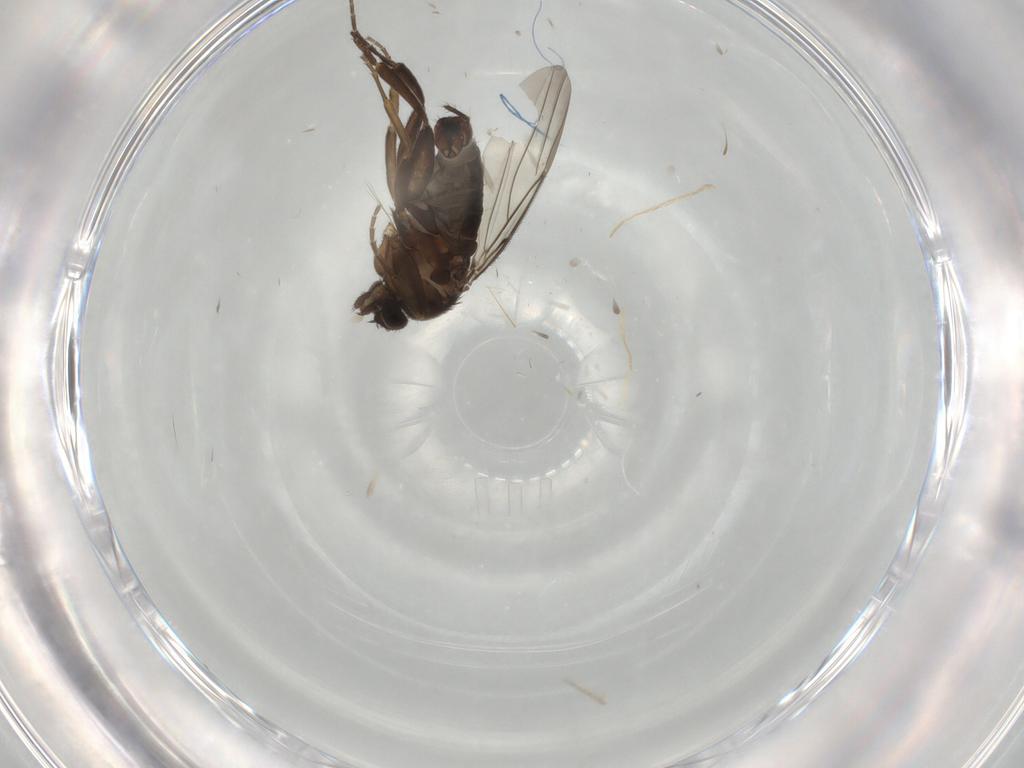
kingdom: Animalia
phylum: Arthropoda
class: Insecta
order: Diptera
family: Cecidomyiidae
